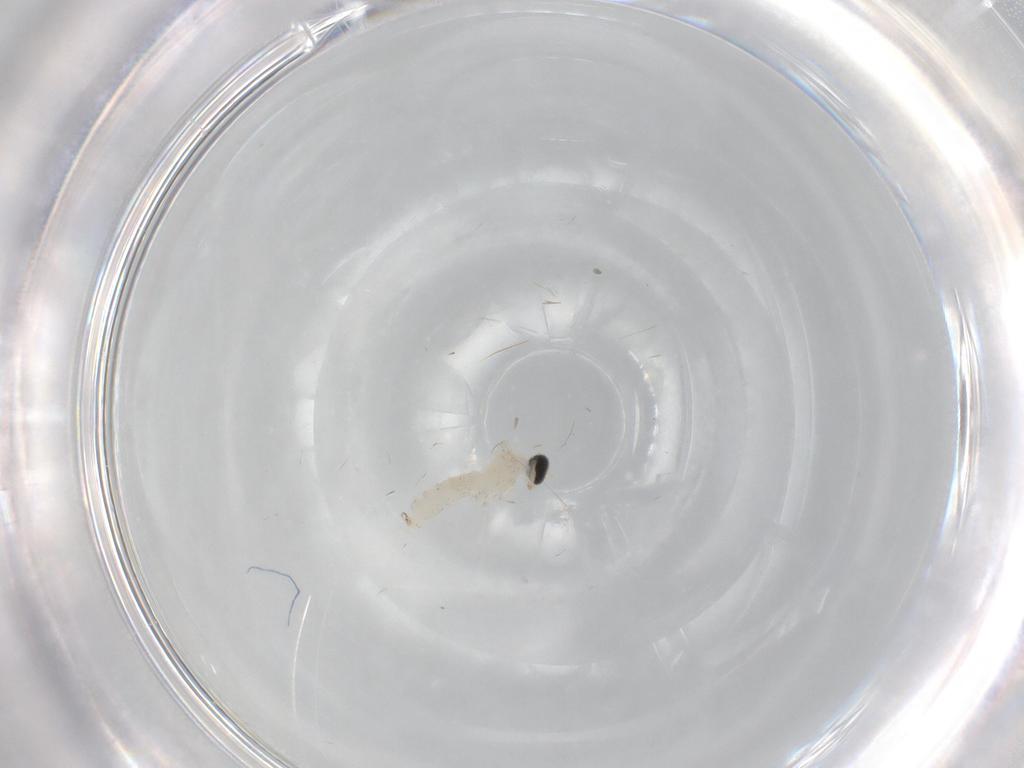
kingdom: Animalia
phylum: Arthropoda
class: Insecta
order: Diptera
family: Cecidomyiidae
